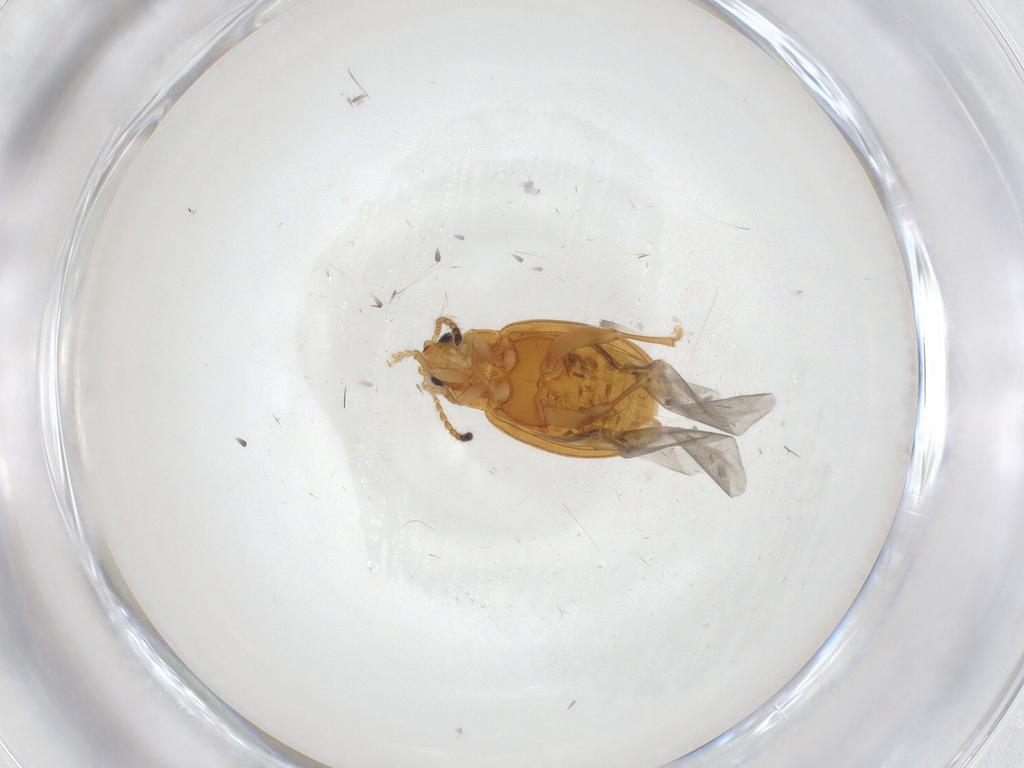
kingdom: Animalia
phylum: Arthropoda
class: Insecta
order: Coleoptera
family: Chrysomelidae
